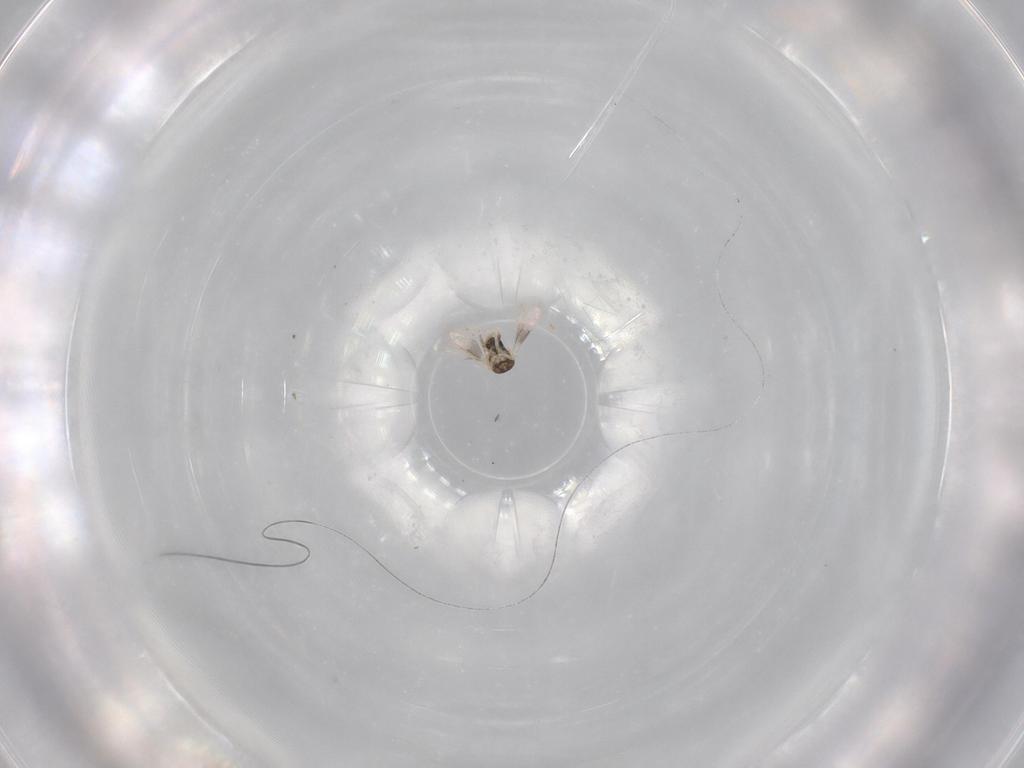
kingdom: Animalia
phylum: Arthropoda
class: Insecta
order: Hymenoptera
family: Aphelinidae
